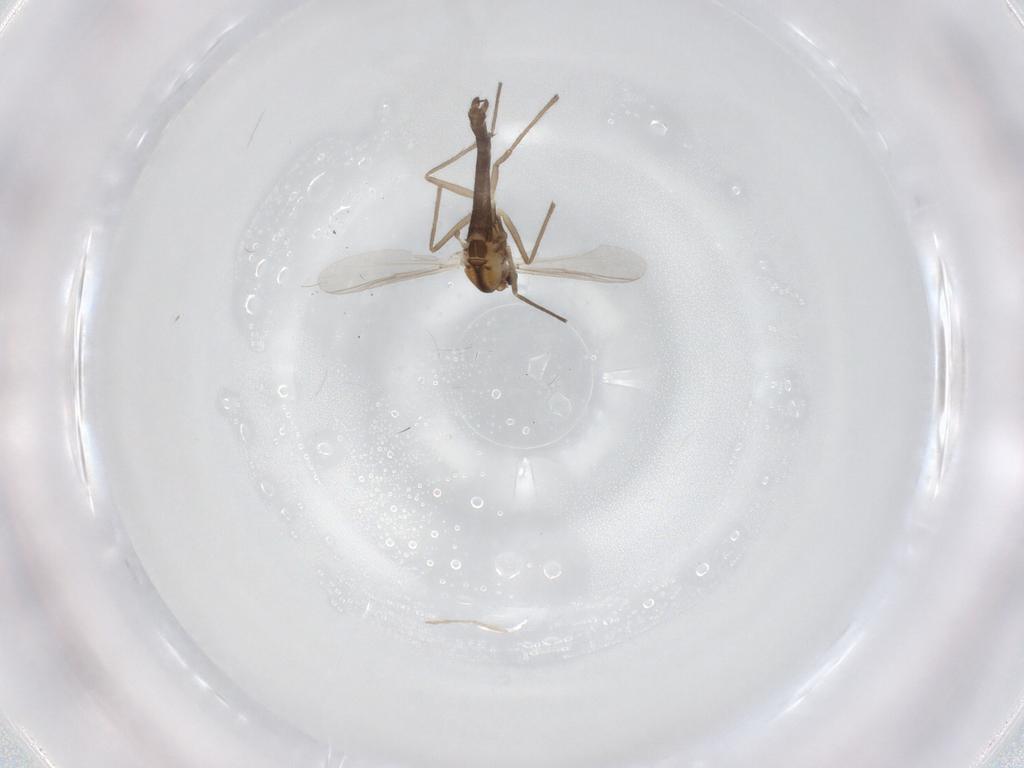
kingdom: Animalia
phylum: Arthropoda
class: Insecta
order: Diptera
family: Chironomidae
